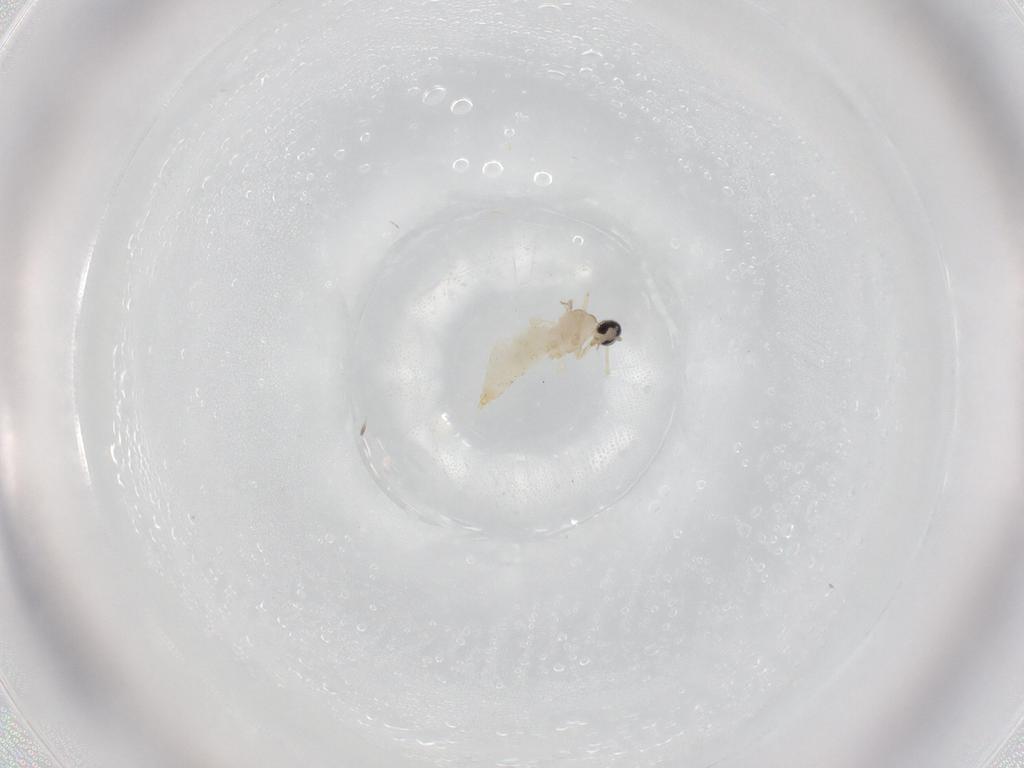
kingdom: Animalia
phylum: Arthropoda
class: Insecta
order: Diptera
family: Cecidomyiidae
